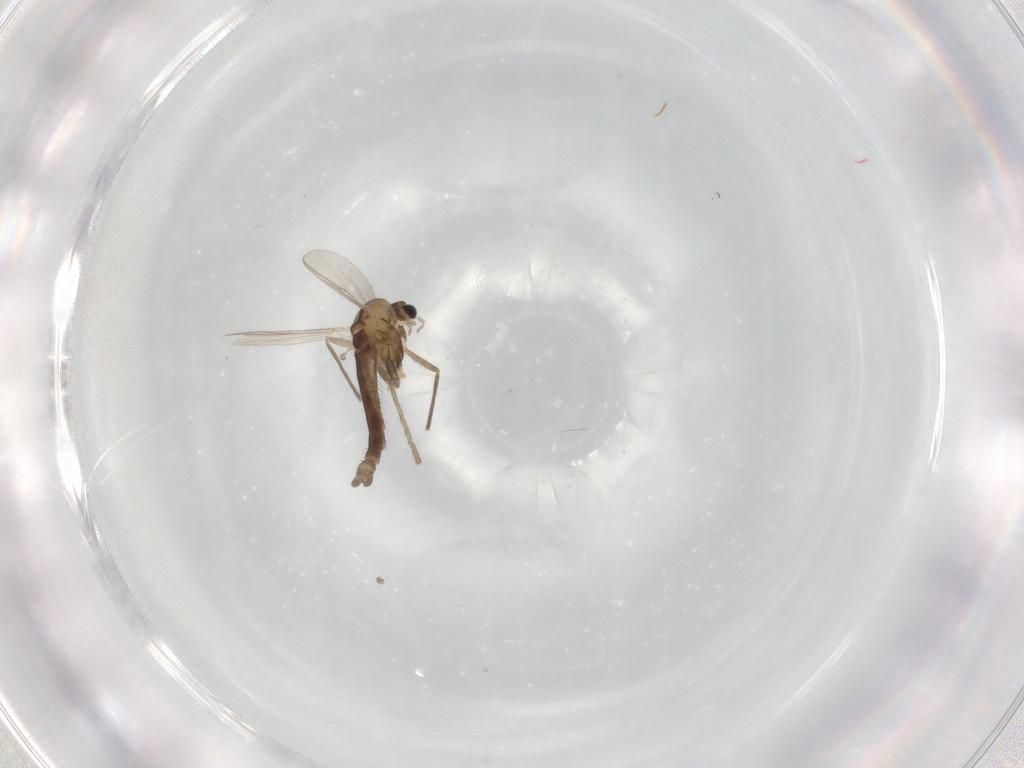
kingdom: Animalia
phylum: Arthropoda
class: Insecta
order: Diptera
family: Chironomidae
